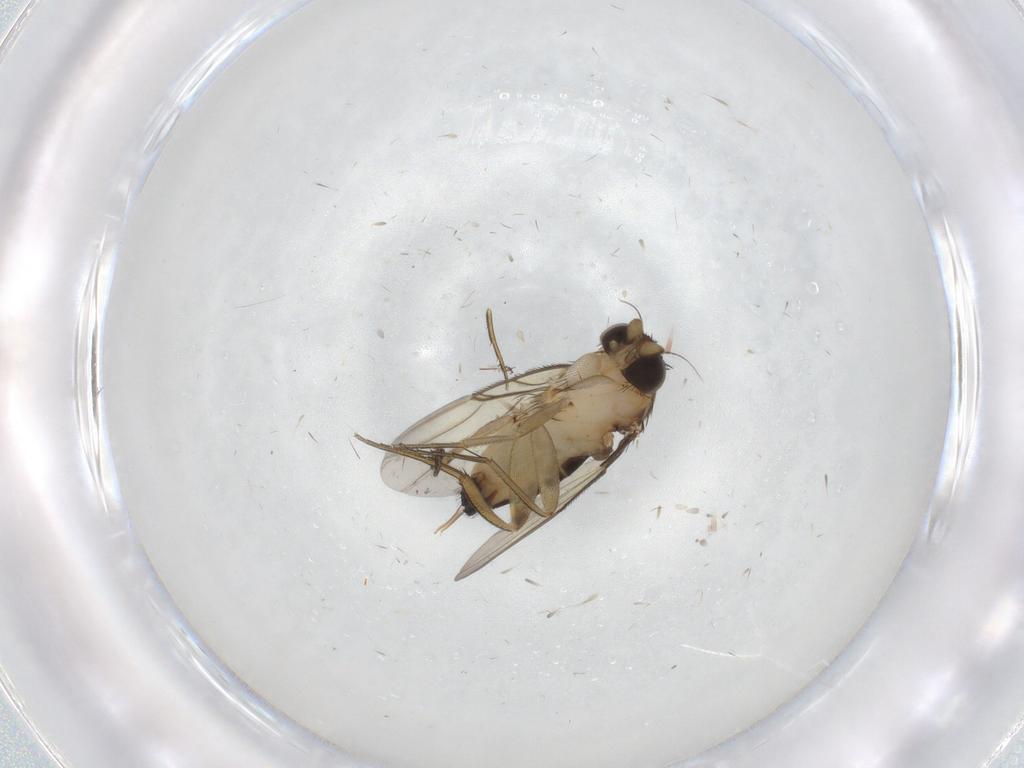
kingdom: Animalia
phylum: Arthropoda
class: Insecta
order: Diptera
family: Phoridae
